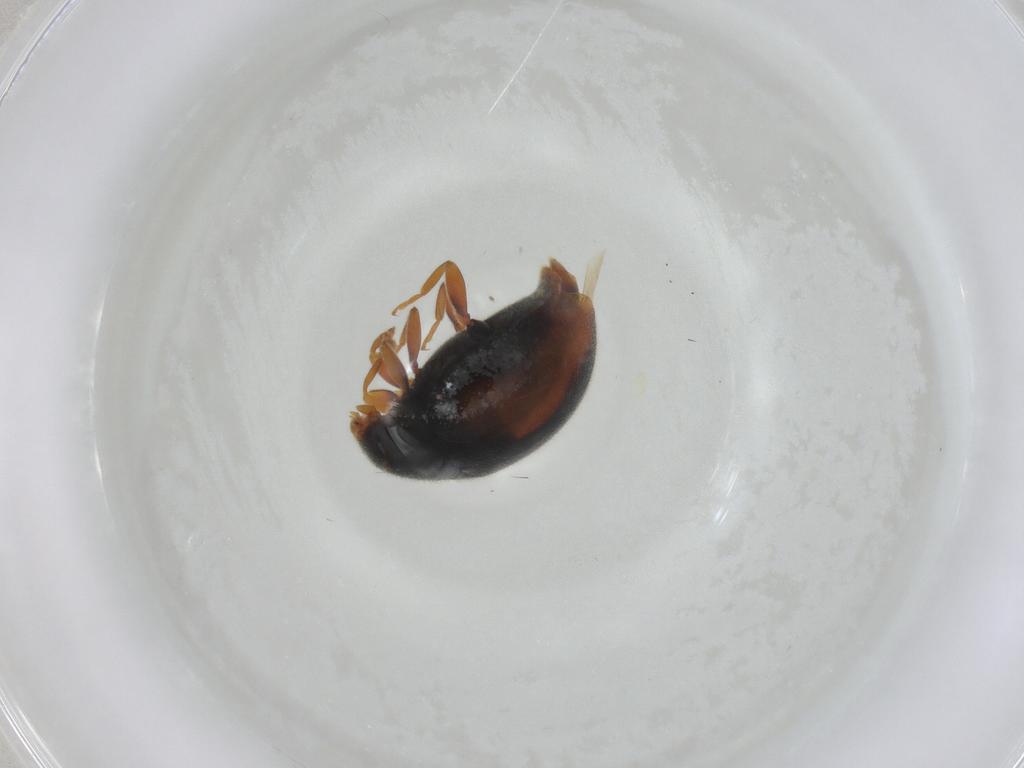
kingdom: Animalia
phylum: Arthropoda
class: Insecta
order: Coleoptera
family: Coccinellidae
